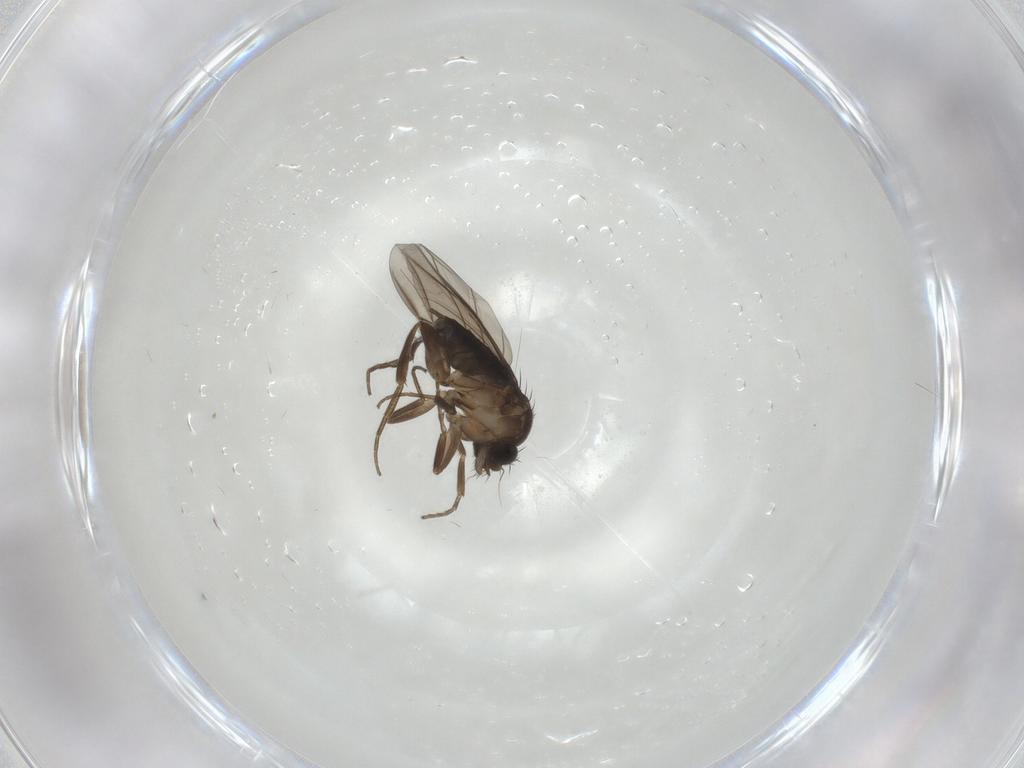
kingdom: Animalia
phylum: Arthropoda
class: Insecta
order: Diptera
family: Phoridae
